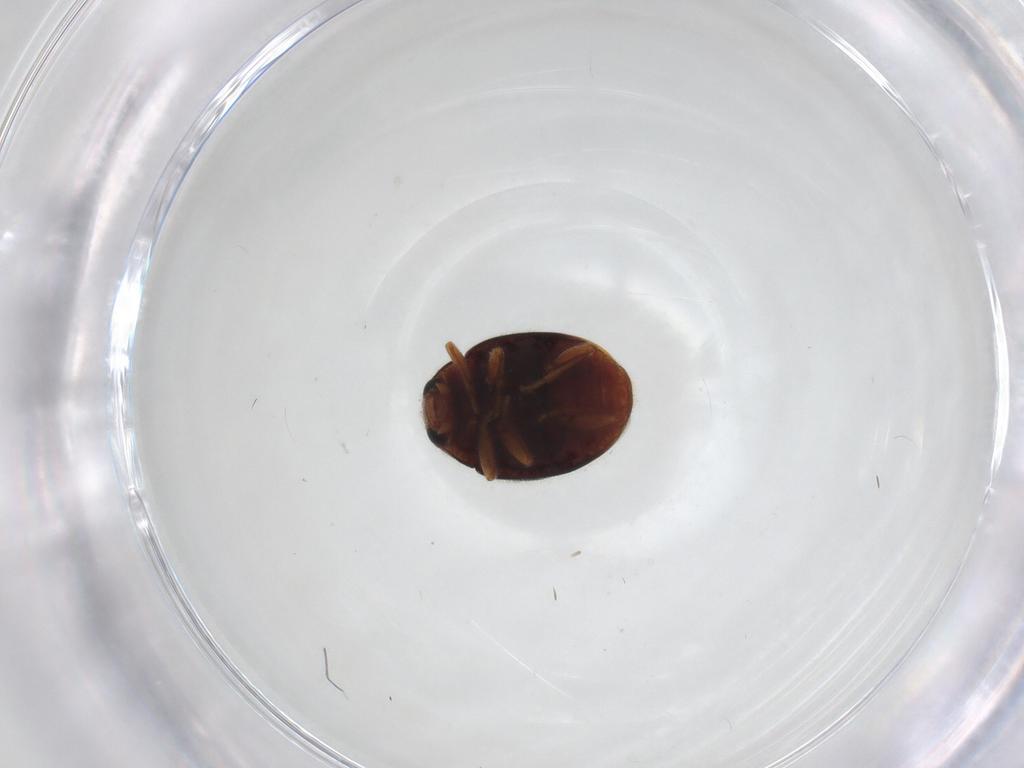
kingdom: Animalia
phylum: Arthropoda
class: Insecta
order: Coleoptera
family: Coccinellidae
